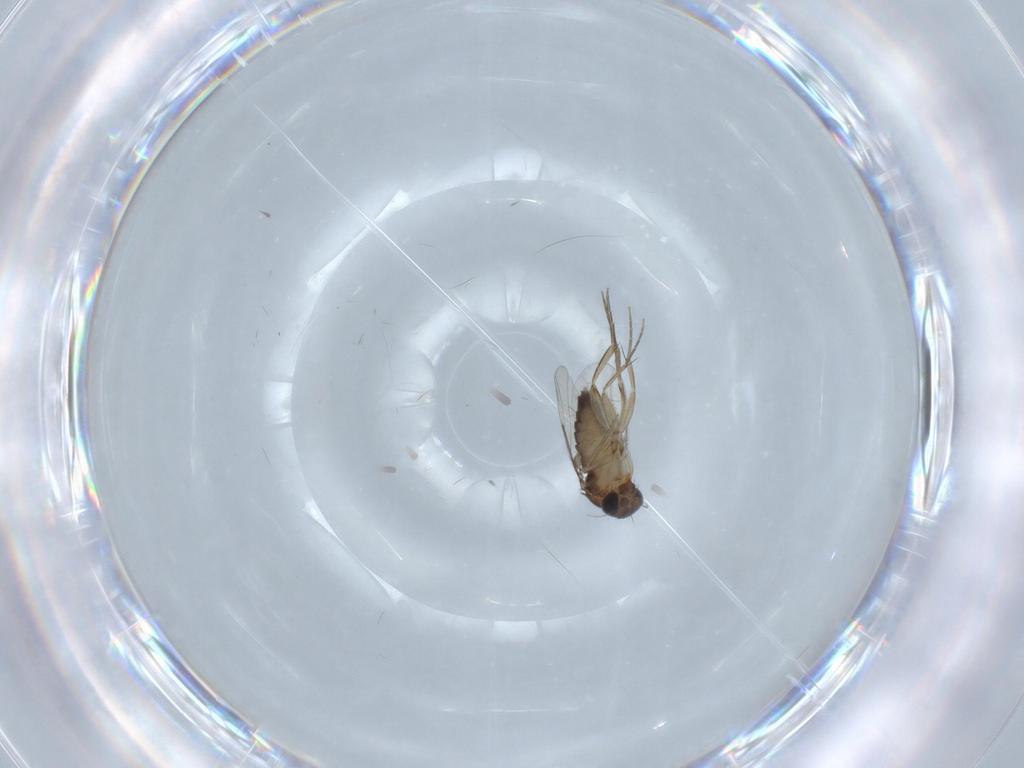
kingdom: Animalia
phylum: Arthropoda
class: Insecta
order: Diptera
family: Phoridae
